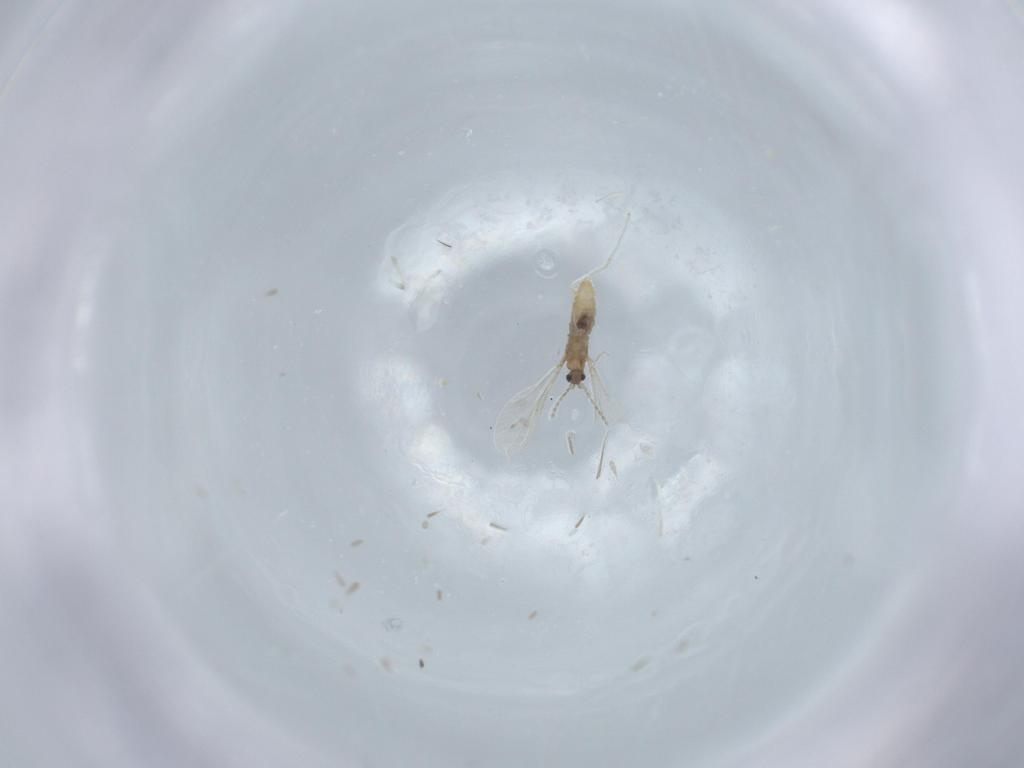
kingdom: Animalia
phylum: Arthropoda
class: Insecta
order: Diptera
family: Cecidomyiidae
